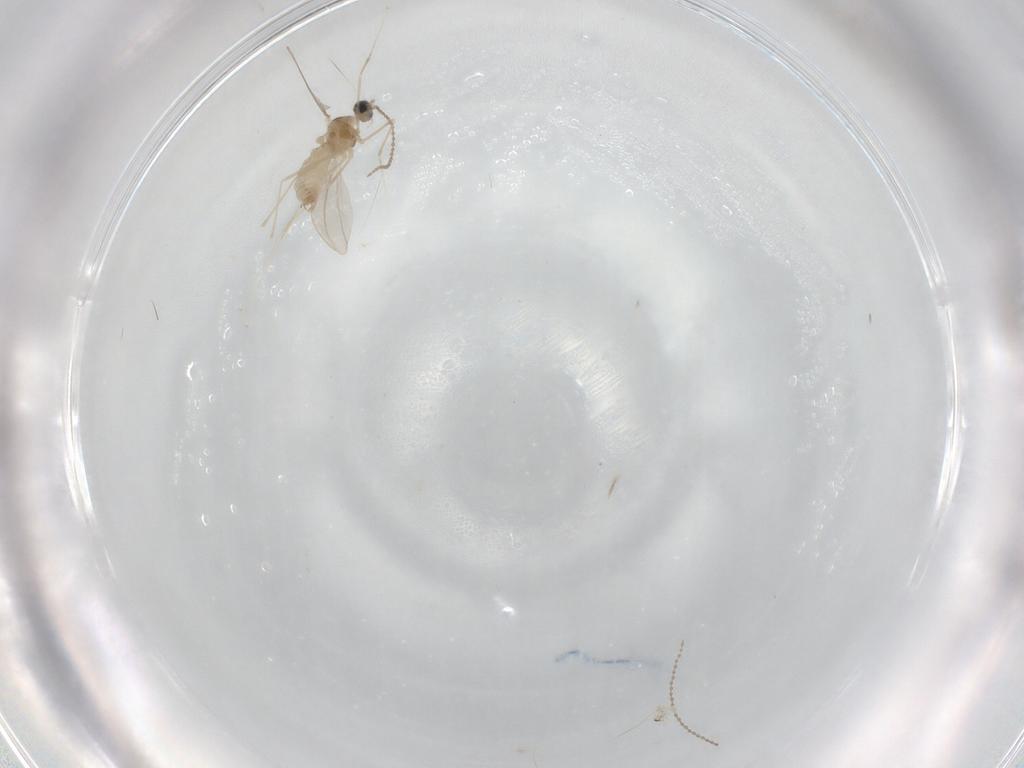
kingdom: Animalia
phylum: Arthropoda
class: Insecta
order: Diptera
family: Cecidomyiidae
